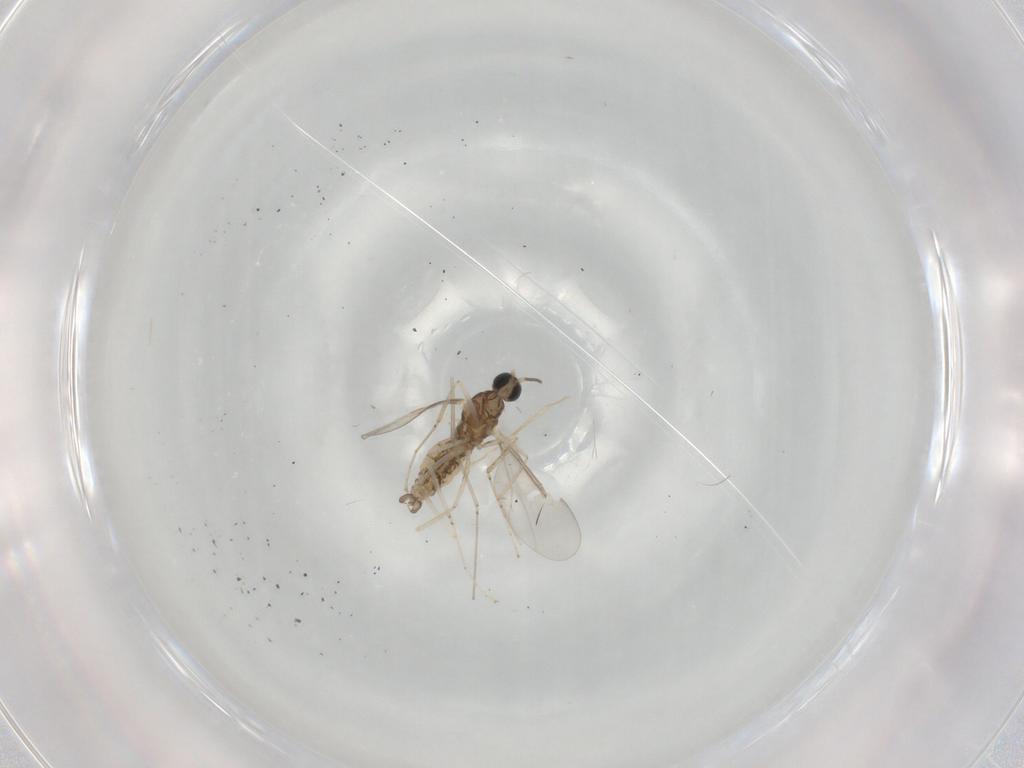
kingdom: Animalia
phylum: Arthropoda
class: Insecta
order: Diptera
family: Cecidomyiidae
